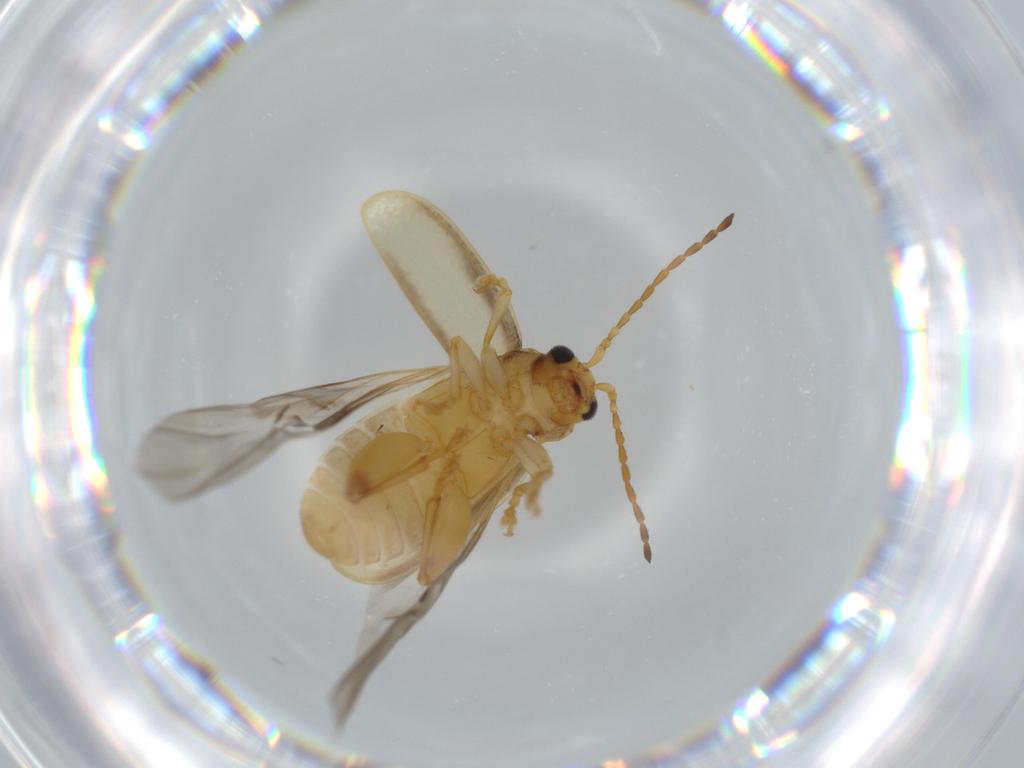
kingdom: Animalia
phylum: Arthropoda
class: Insecta
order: Coleoptera
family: Chrysomelidae
